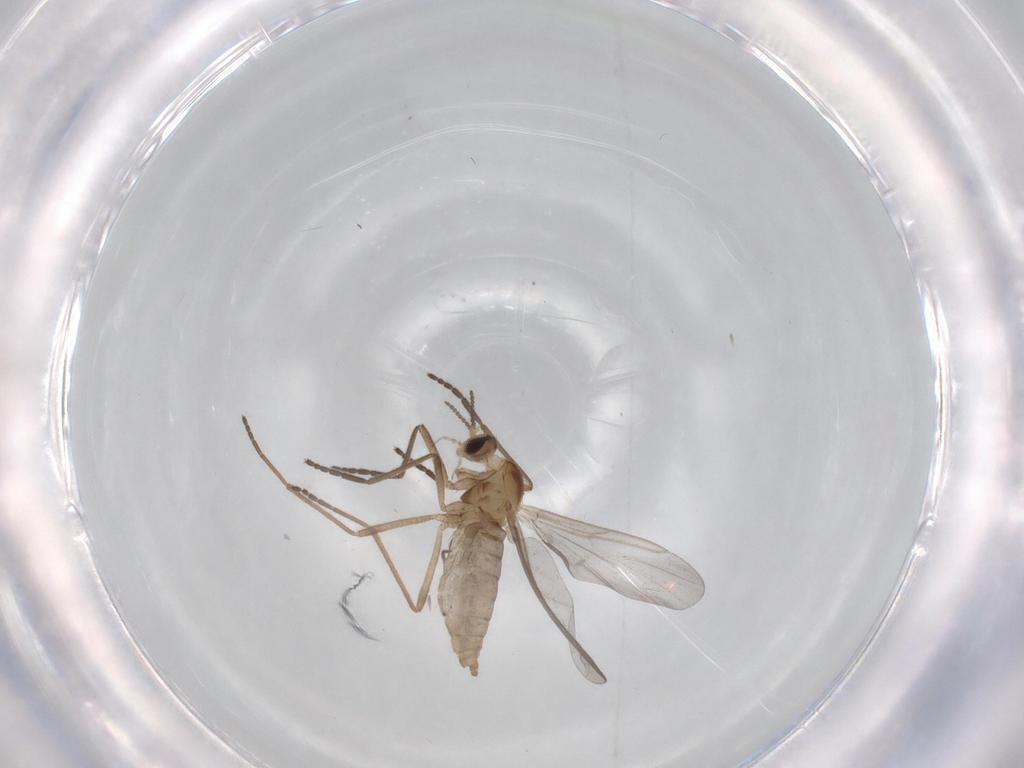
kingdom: Animalia
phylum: Arthropoda
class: Insecta
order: Diptera
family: Cecidomyiidae
